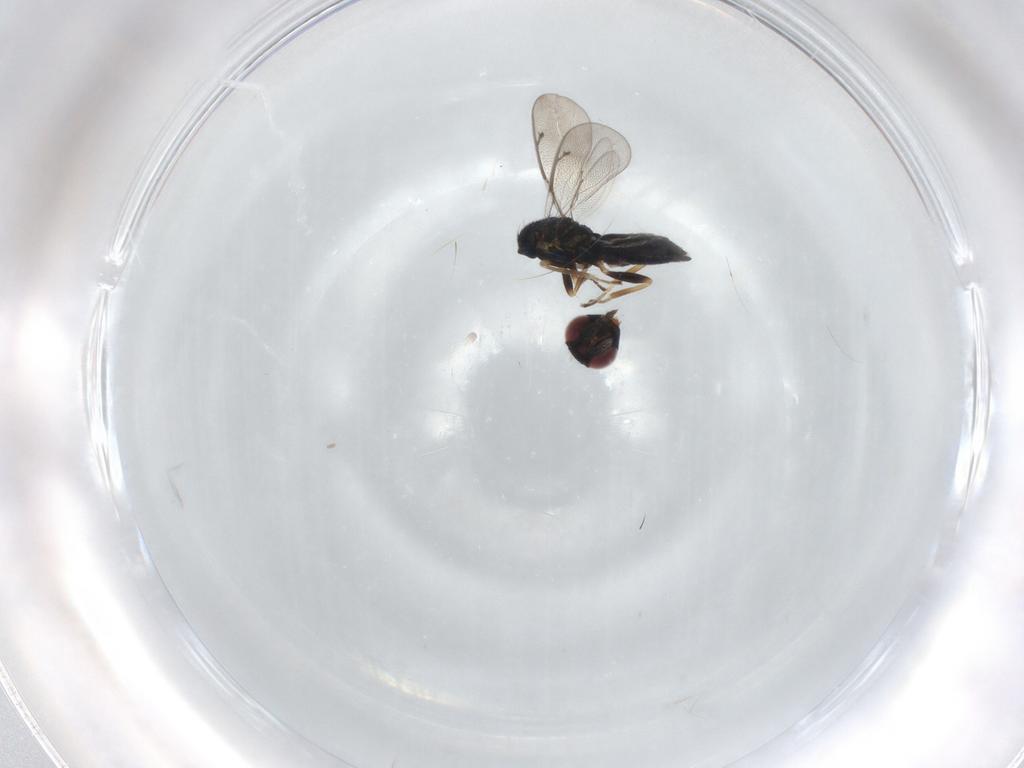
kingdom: Animalia
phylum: Arthropoda
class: Insecta
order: Hymenoptera
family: Eulophidae
